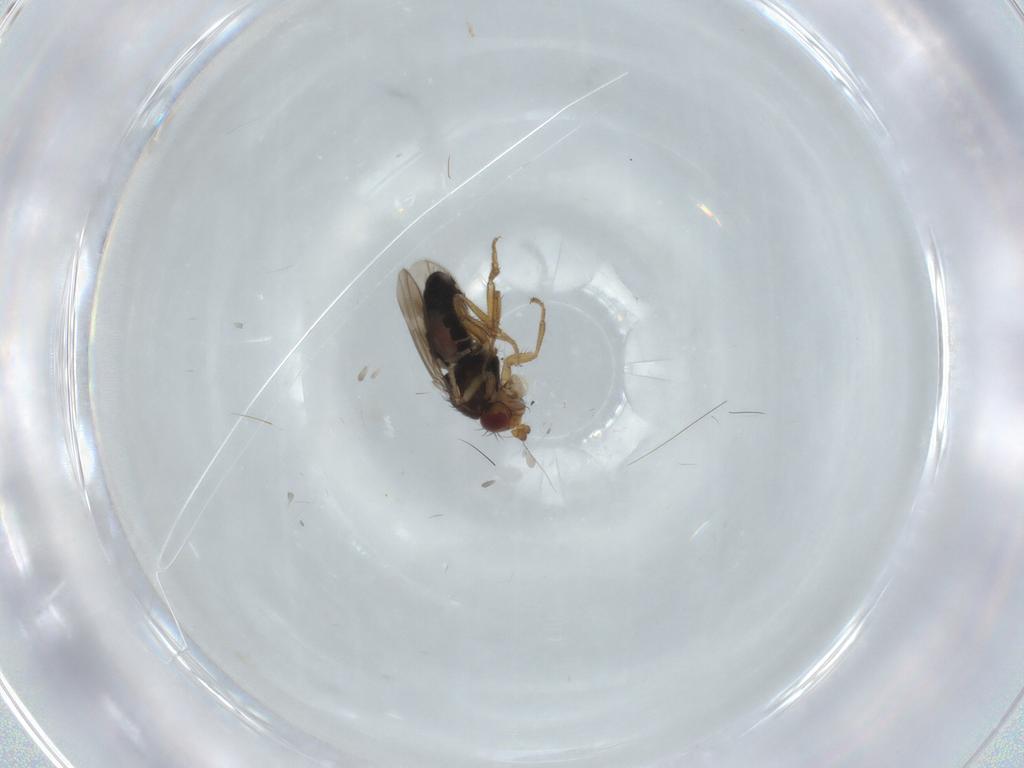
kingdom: Animalia
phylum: Arthropoda
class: Insecta
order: Diptera
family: Sphaeroceridae
